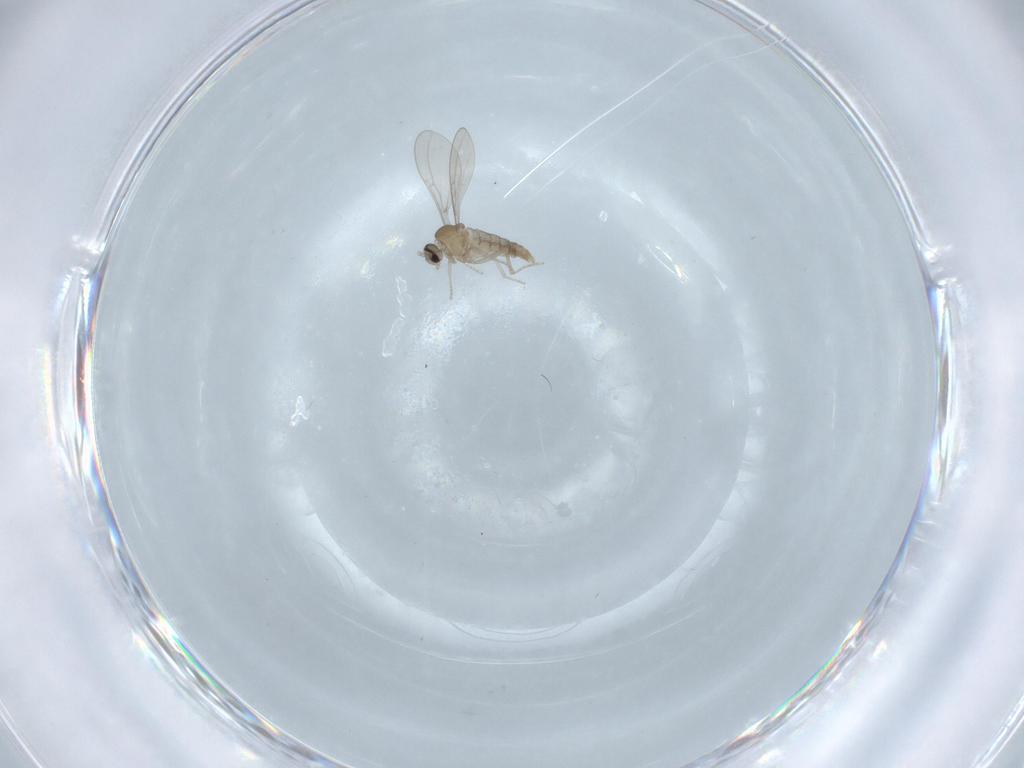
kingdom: Animalia
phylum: Arthropoda
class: Insecta
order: Diptera
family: Cecidomyiidae
